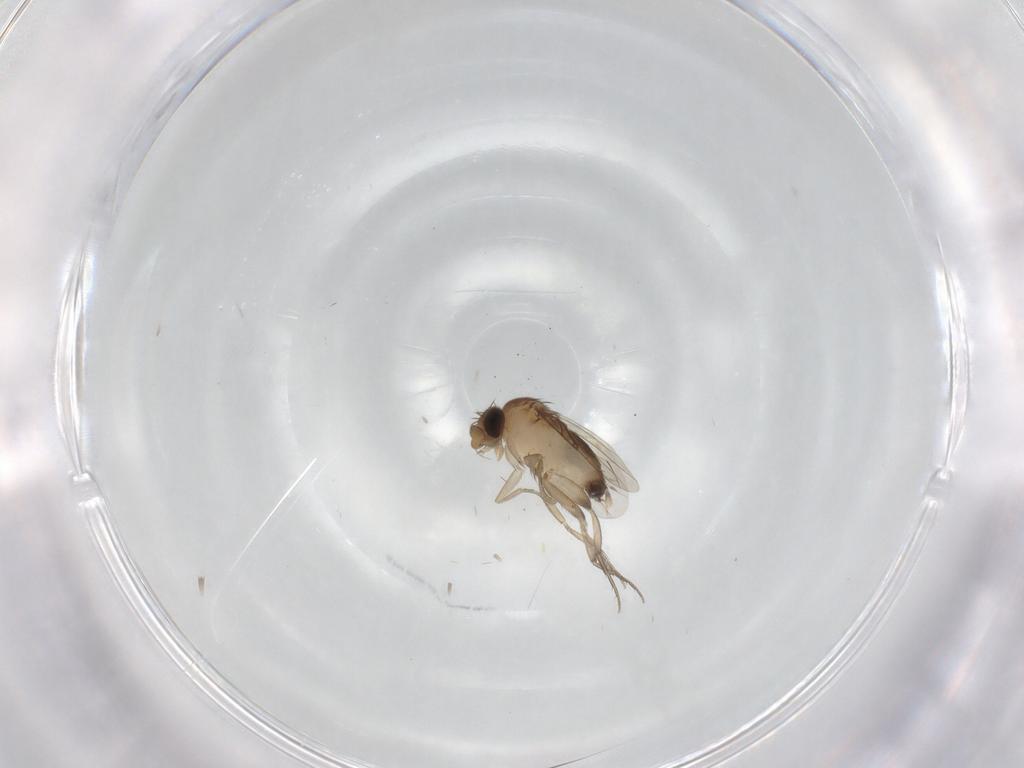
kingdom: Animalia
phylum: Arthropoda
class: Insecta
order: Diptera
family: Phoridae
